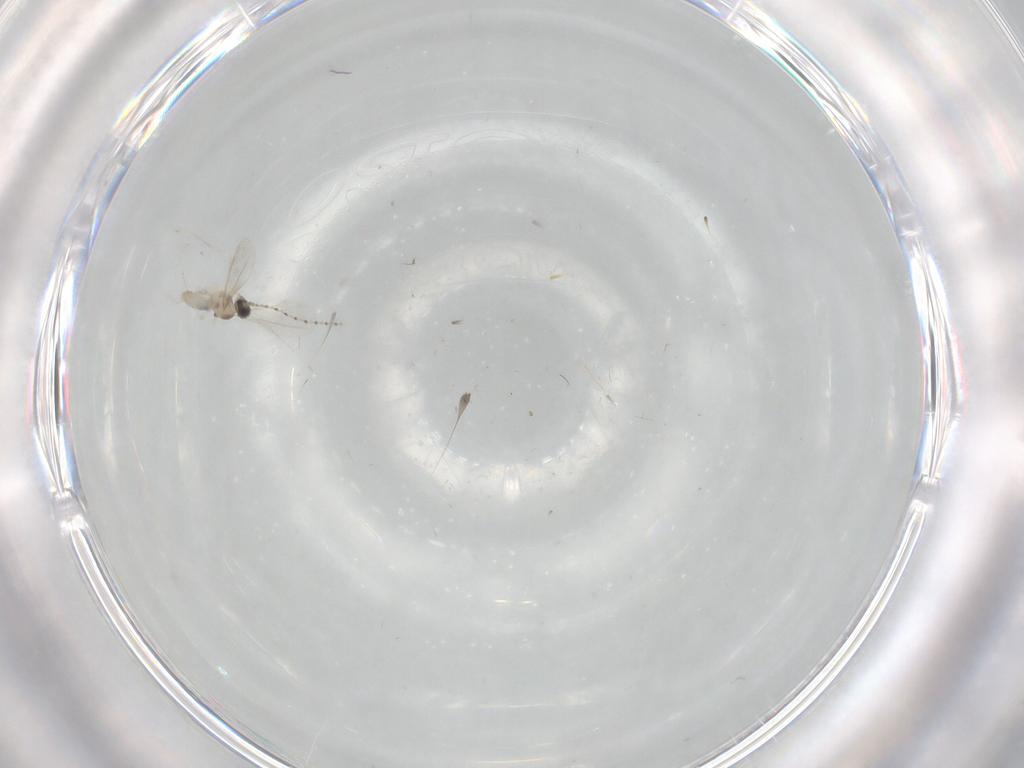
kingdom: Animalia
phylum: Arthropoda
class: Insecta
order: Diptera
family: Cecidomyiidae
